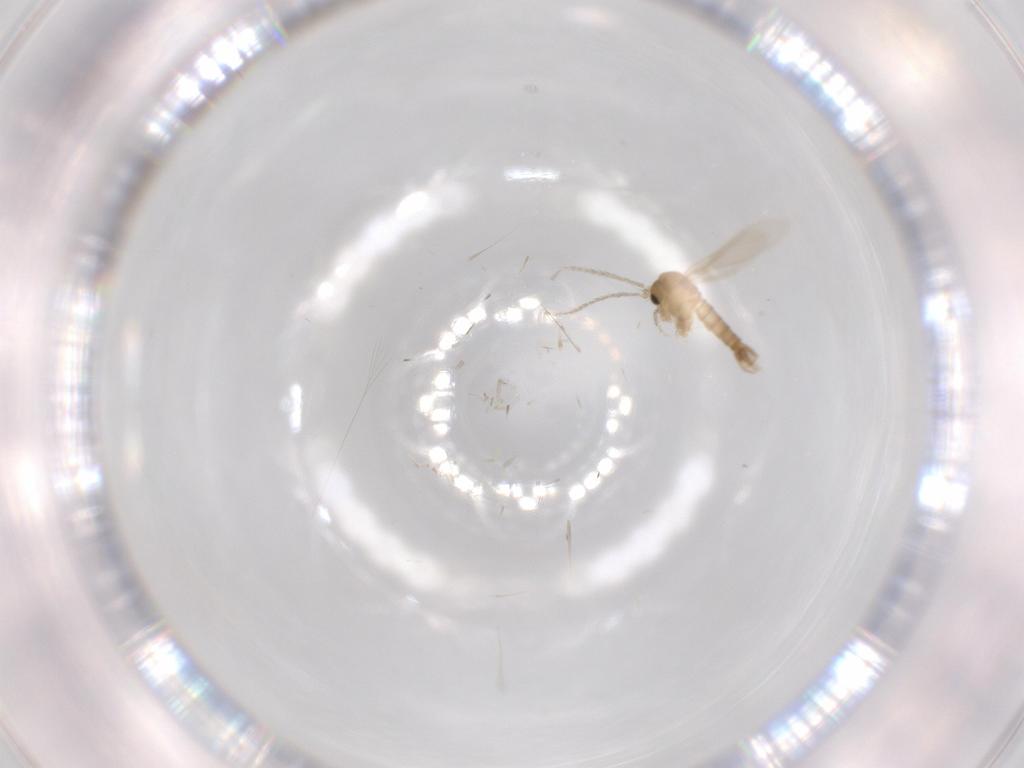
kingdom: Animalia
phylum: Arthropoda
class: Insecta
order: Diptera
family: Psychodidae
